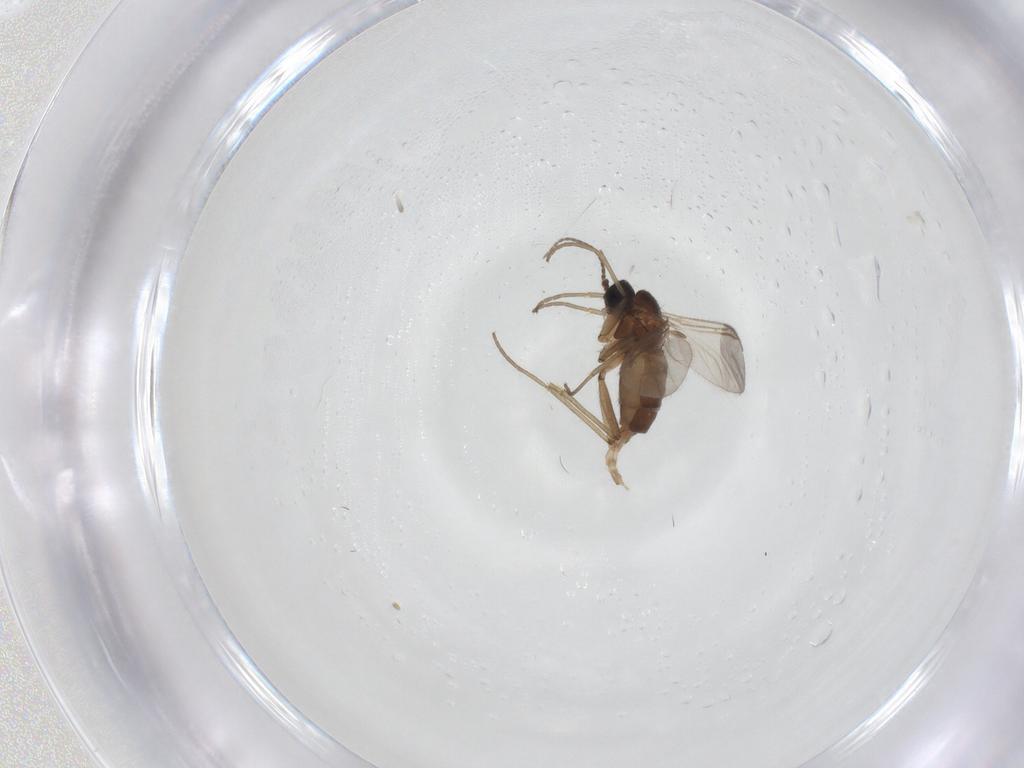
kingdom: Animalia
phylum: Arthropoda
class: Insecta
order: Diptera
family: Sciaridae
